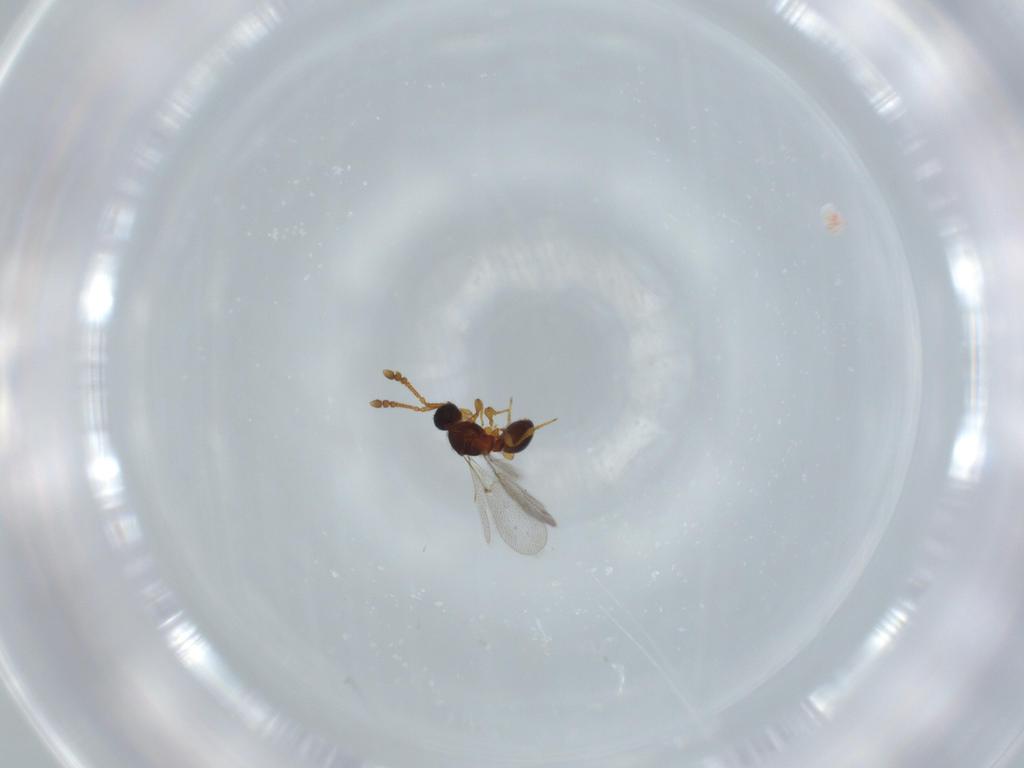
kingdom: Animalia
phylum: Arthropoda
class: Insecta
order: Hymenoptera
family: Diapriidae
